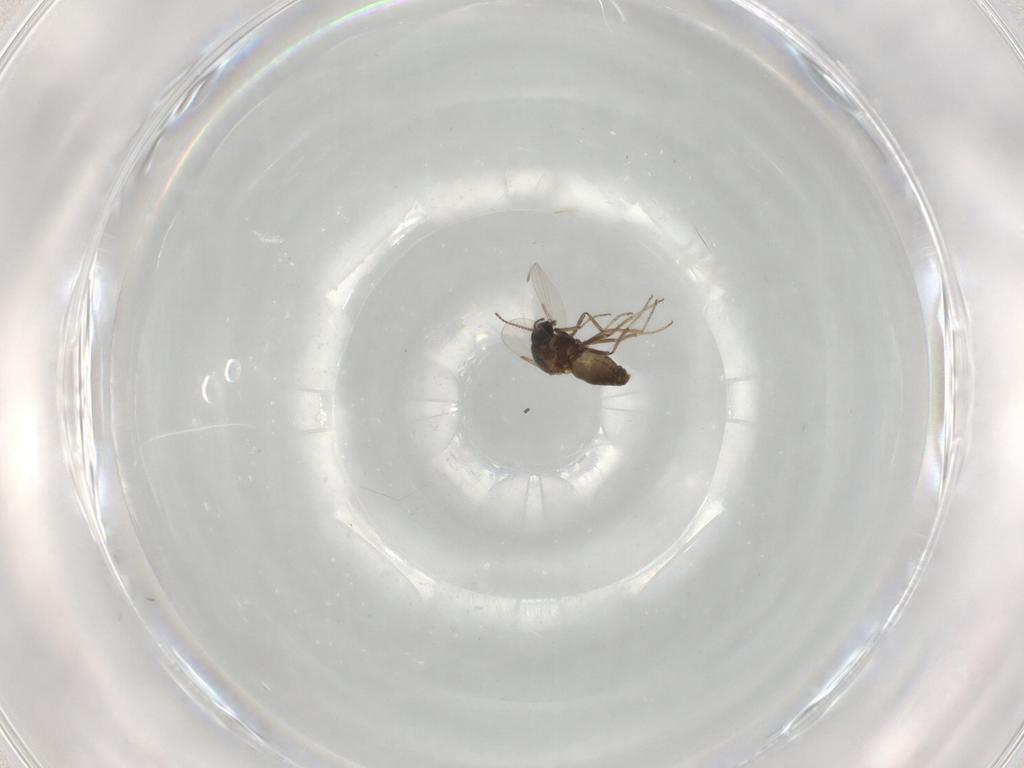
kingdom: Animalia
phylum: Arthropoda
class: Insecta
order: Diptera
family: Ceratopogonidae
